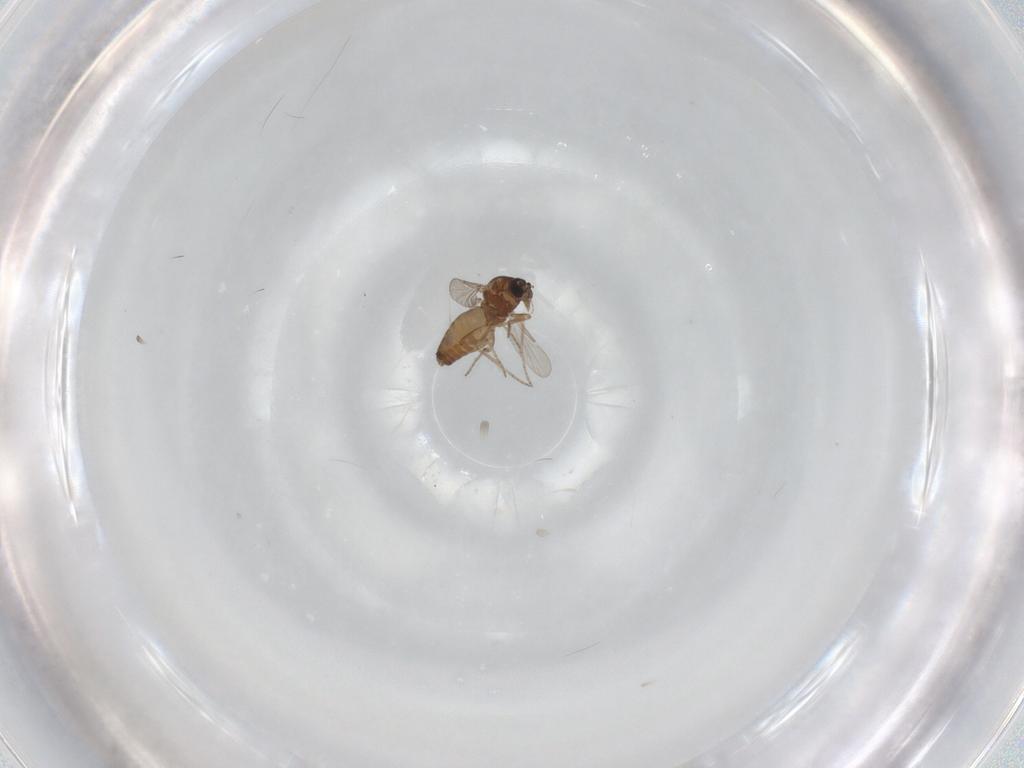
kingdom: Animalia
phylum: Arthropoda
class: Insecta
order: Diptera
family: Ceratopogonidae
